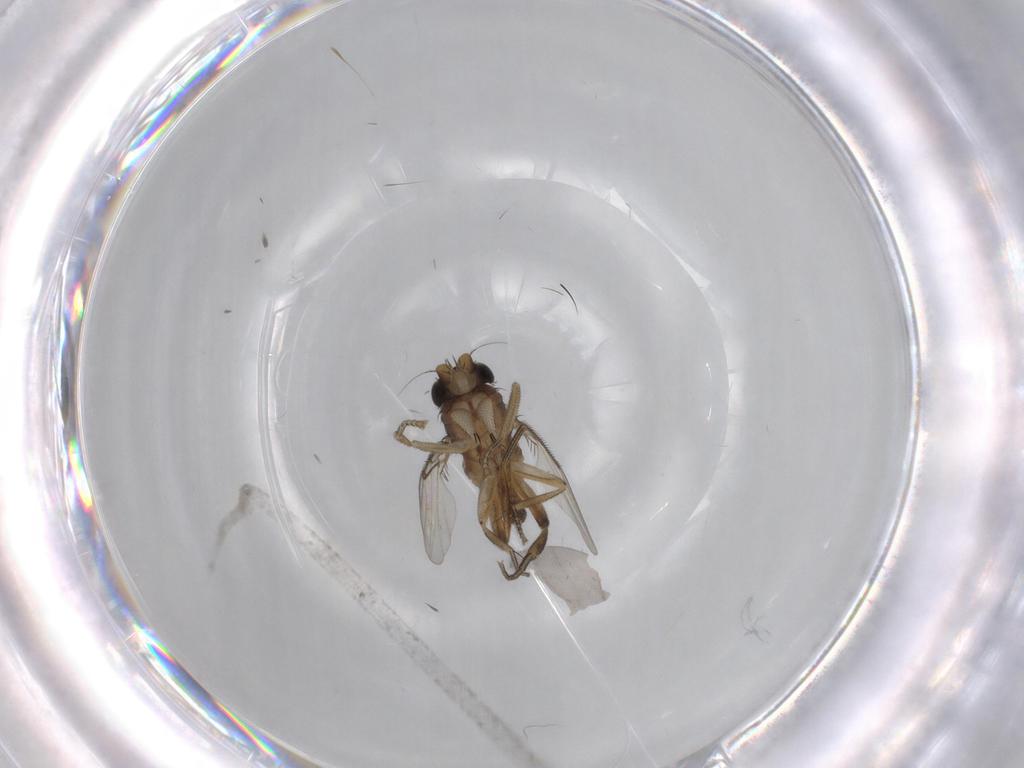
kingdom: Animalia
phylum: Arthropoda
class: Insecta
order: Diptera
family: Phoridae
